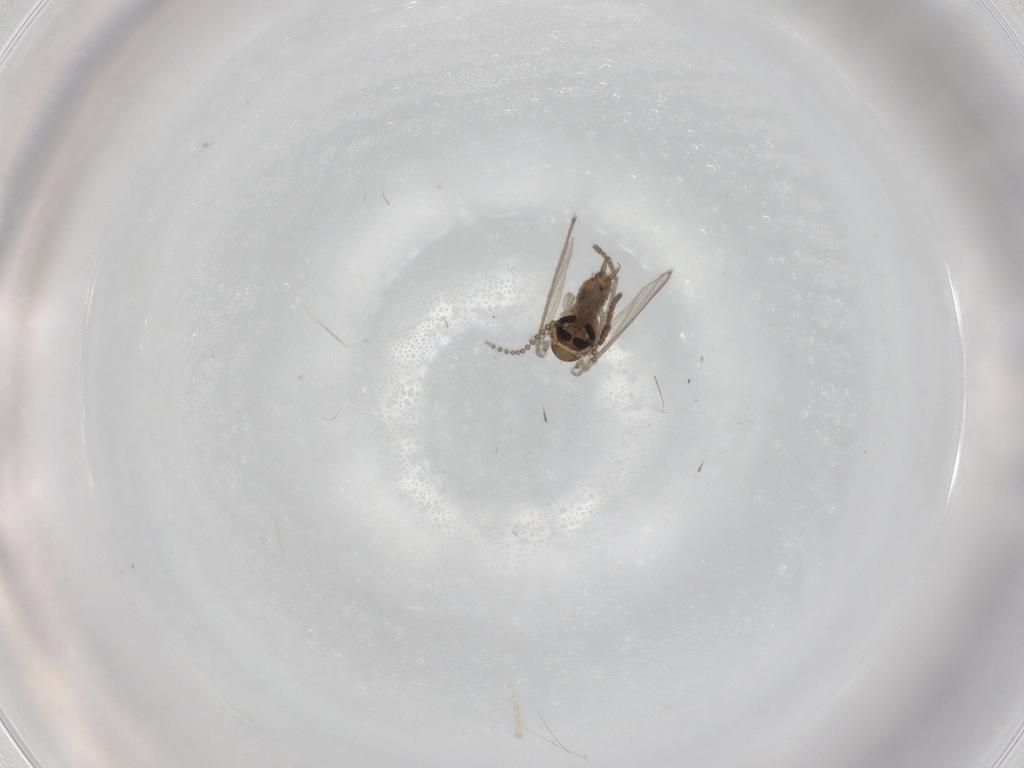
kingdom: Animalia
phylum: Arthropoda
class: Insecta
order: Diptera
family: Psychodidae
